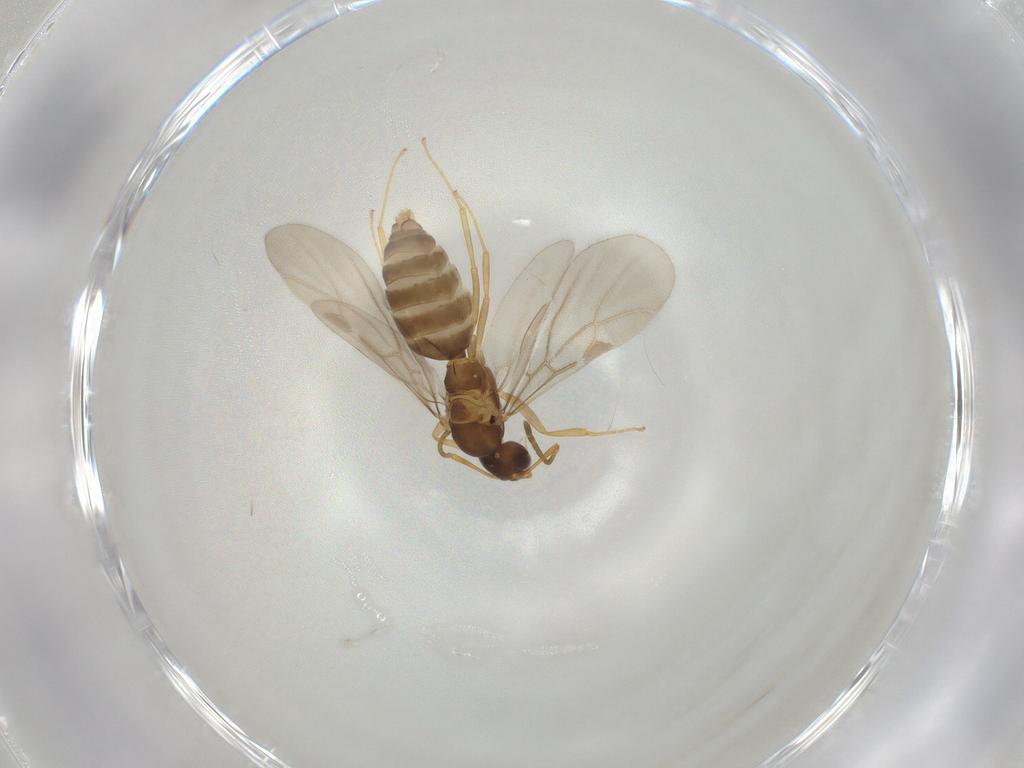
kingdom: Animalia
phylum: Arthropoda
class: Insecta
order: Hymenoptera
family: Formicidae
